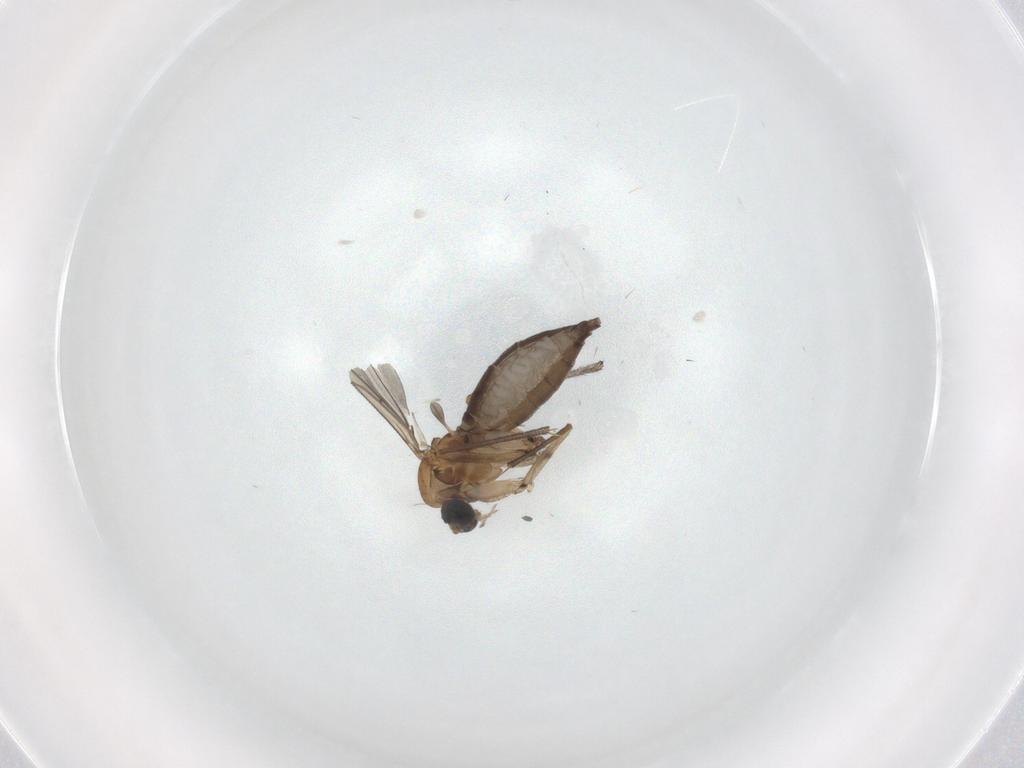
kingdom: Animalia
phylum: Arthropoda
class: Insecta
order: Diptera
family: Sciaridae
